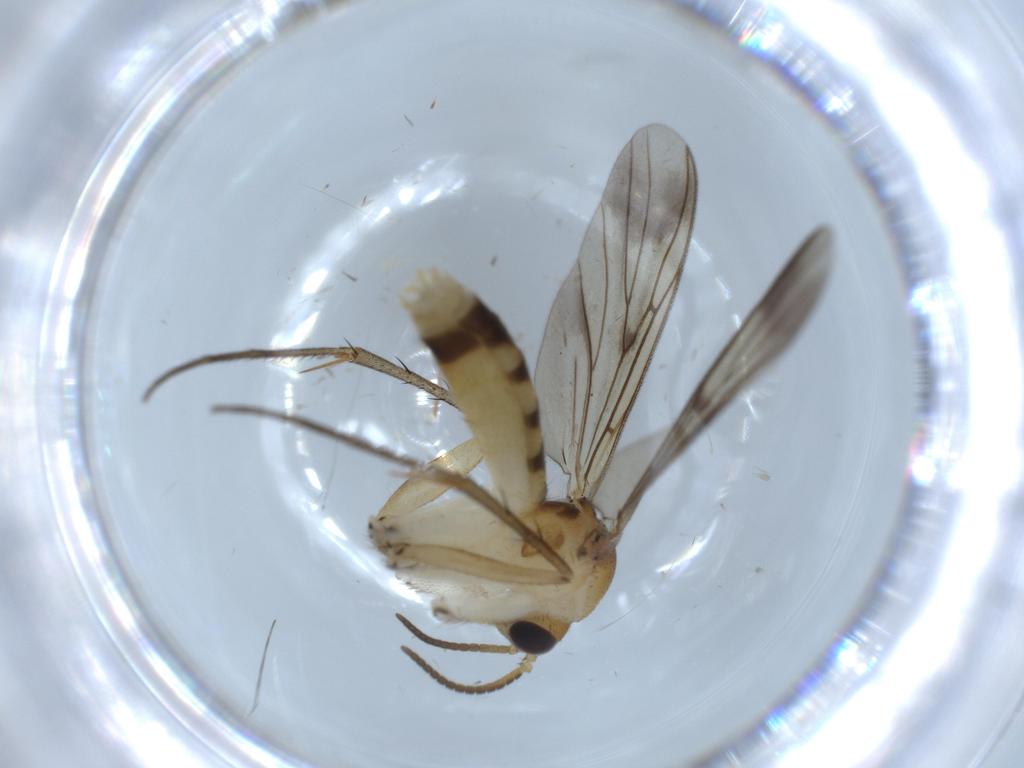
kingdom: Animalia
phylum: Arthropoda
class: Insecta
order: Diptera
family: Cecidomyiidae
